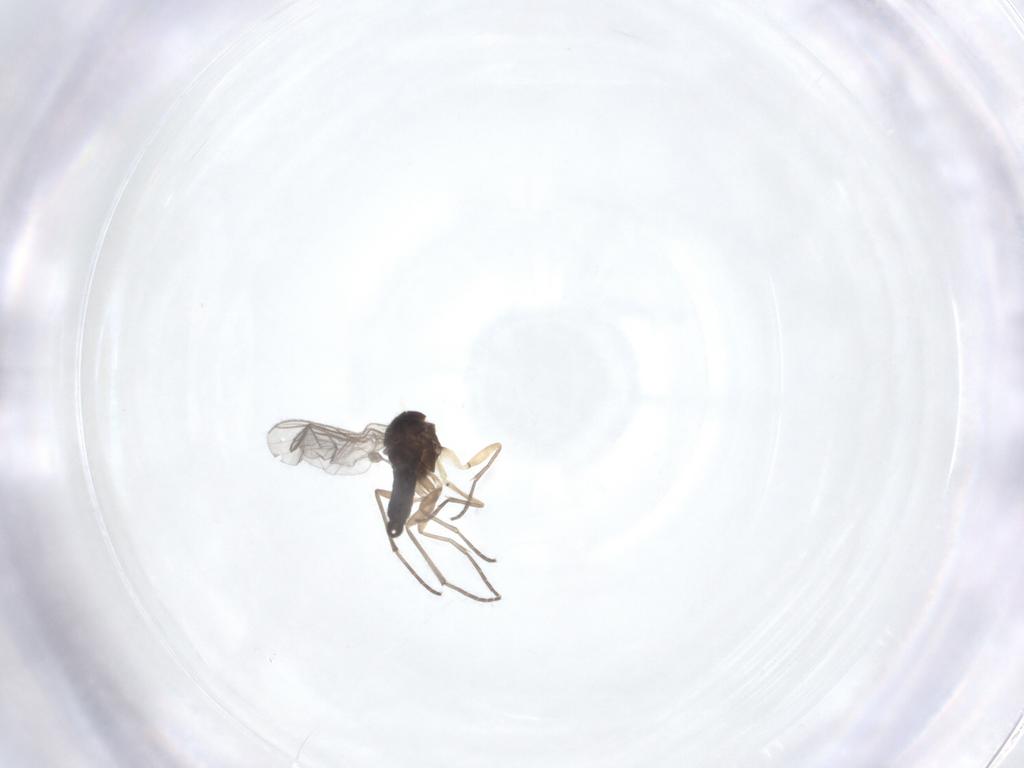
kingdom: Animalia
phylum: Arthropoda
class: Insecta
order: Diptera
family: Sciaridae
